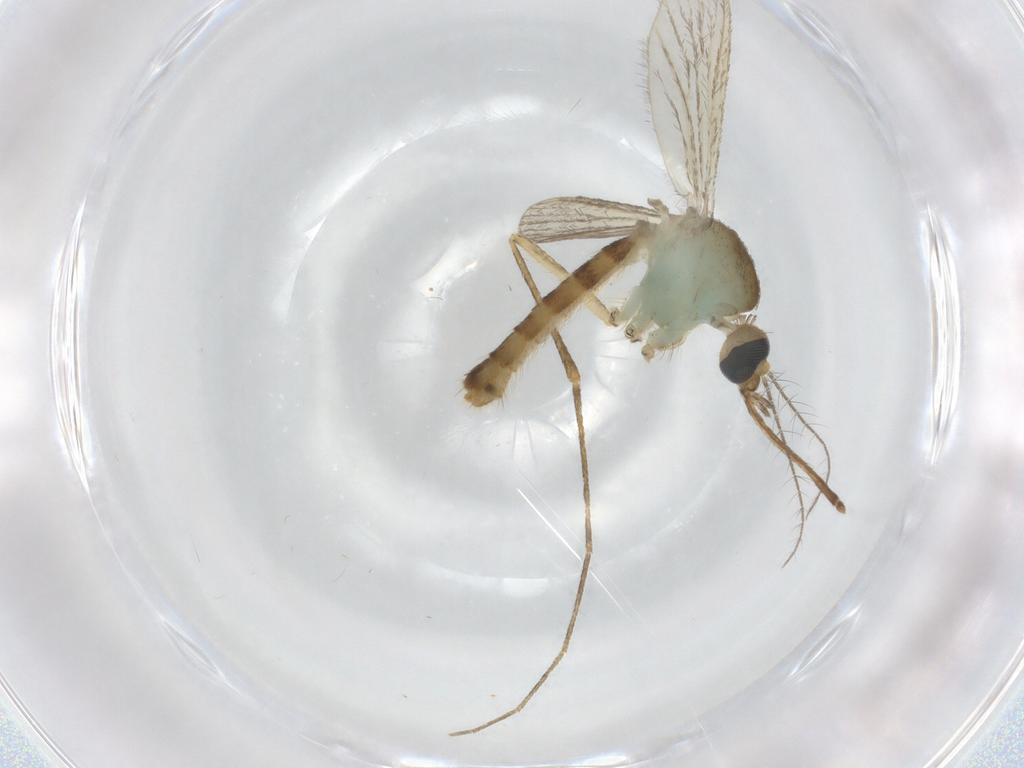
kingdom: Animalia
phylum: Arthropoda
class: Insecta
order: Diptera
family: Dolichopodidae
